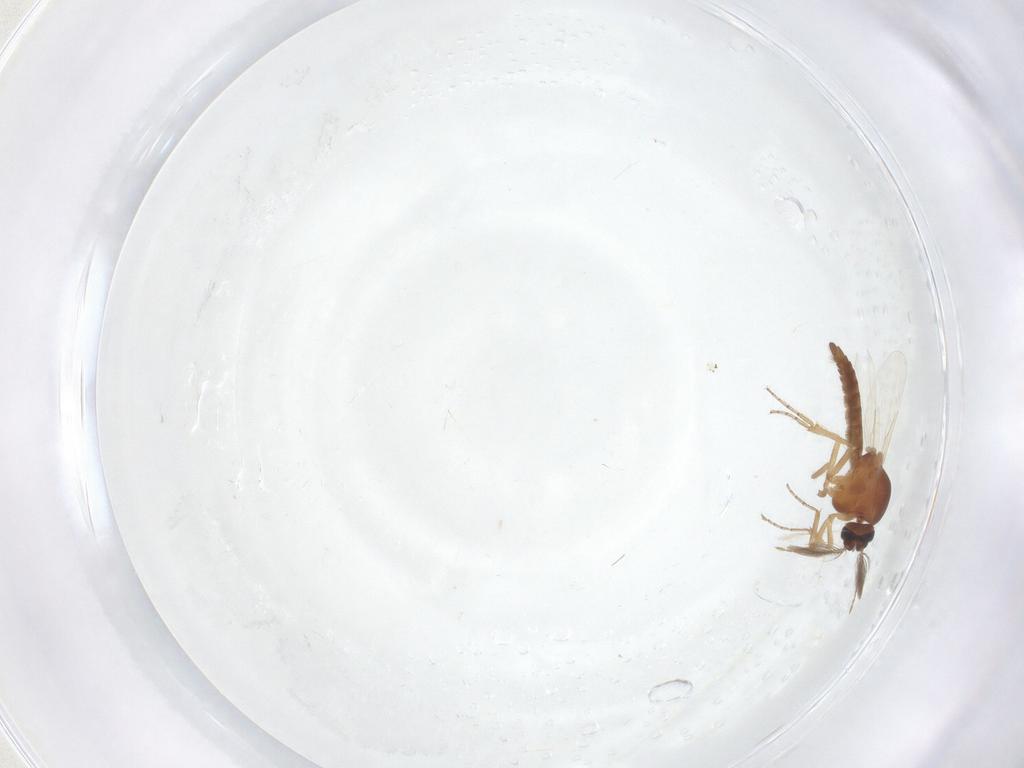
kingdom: Animalia
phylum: Arthropoda
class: Insecta
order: Diptera
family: Ceratopogonidae
